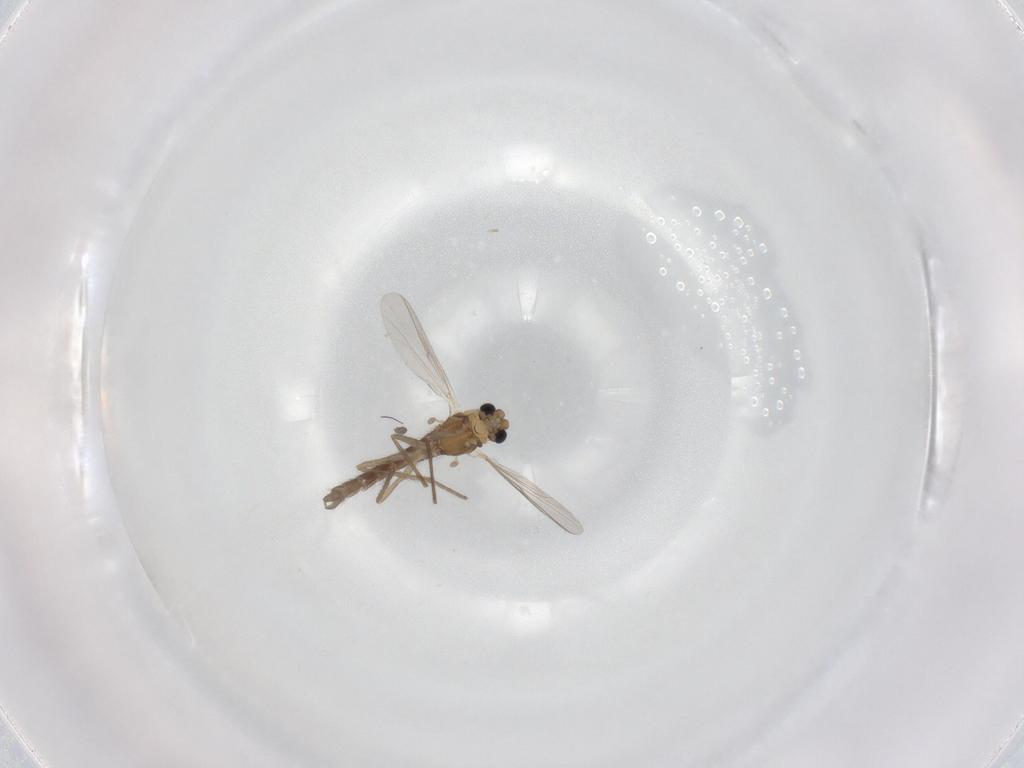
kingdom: Animalia
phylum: Arthropoda
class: Insecta
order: Diptera
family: Chironomidae
